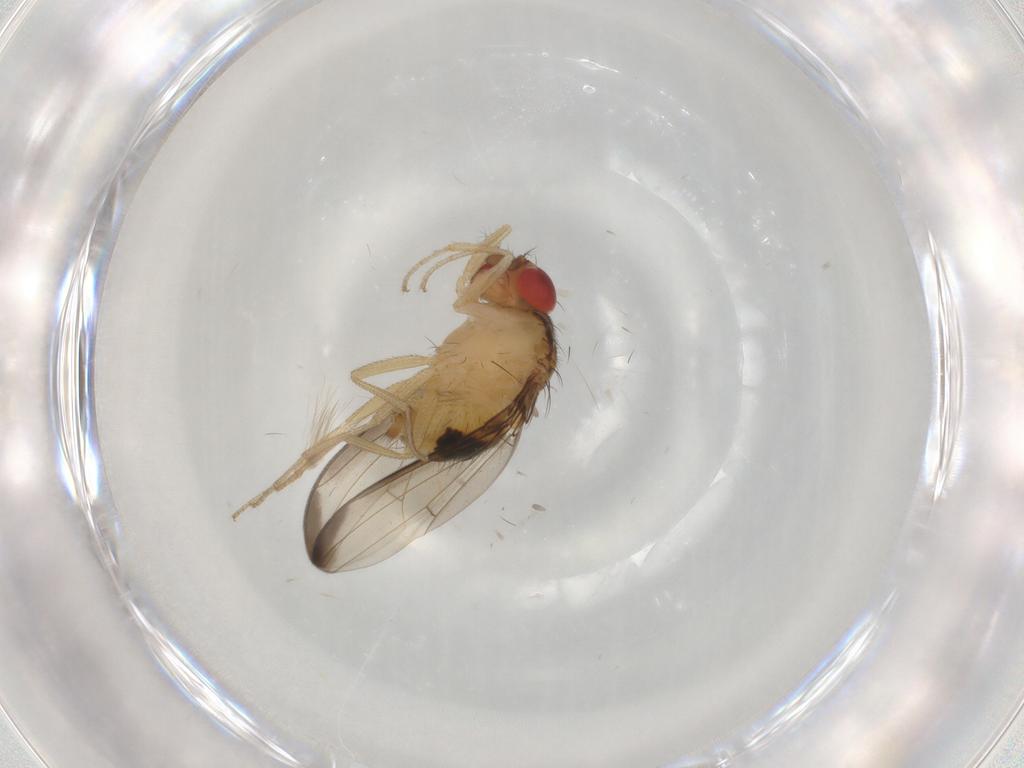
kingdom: Animalia
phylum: Arthropoda
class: Insecta
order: Diptera
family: Drosophilidae
